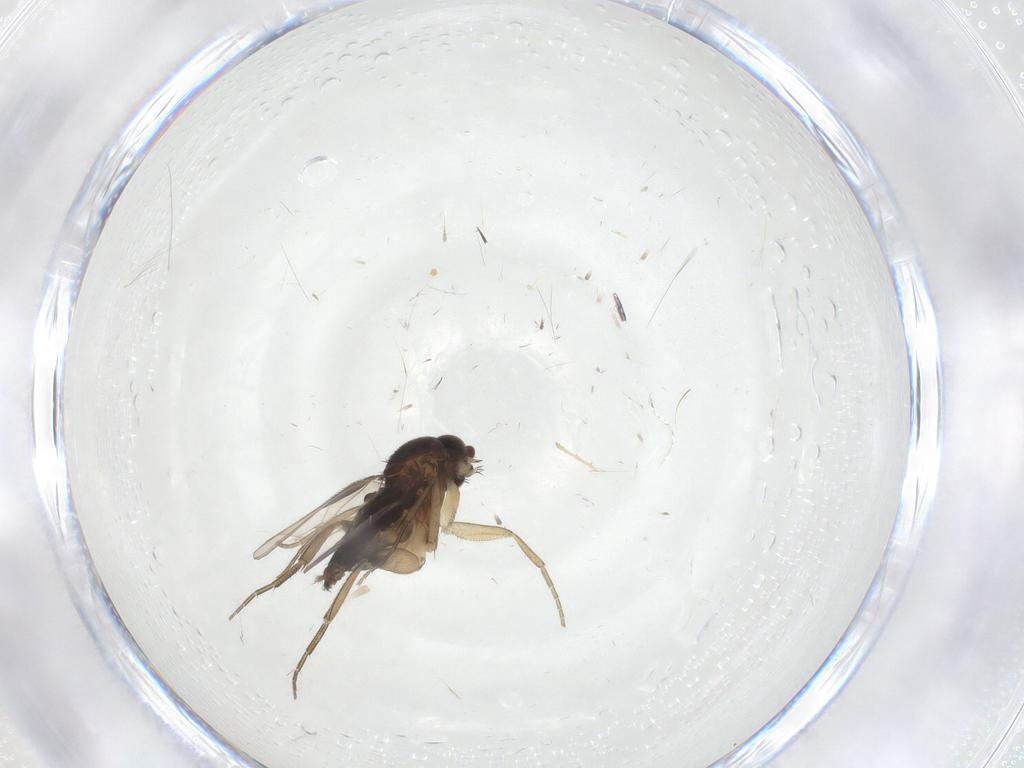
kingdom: Animalia
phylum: Arthropoda
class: Insecta
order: Diptera
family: Phoridae
